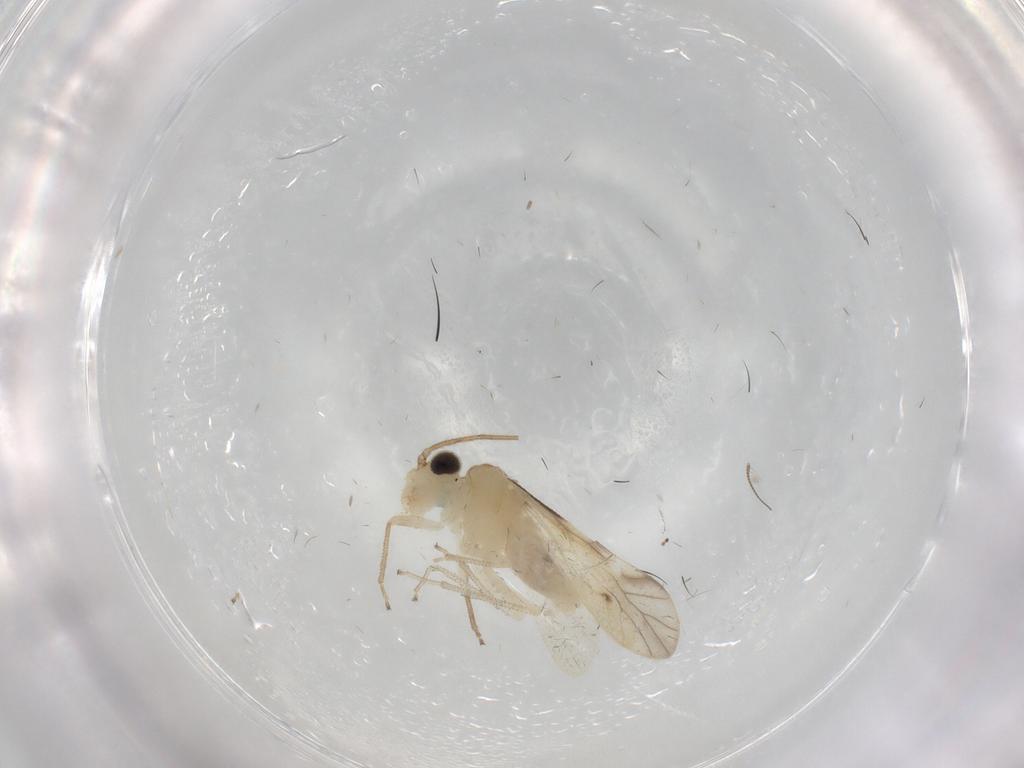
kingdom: Animalia
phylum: Arthropoda
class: Insecta
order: Psocodea
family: Caeciliusidae
